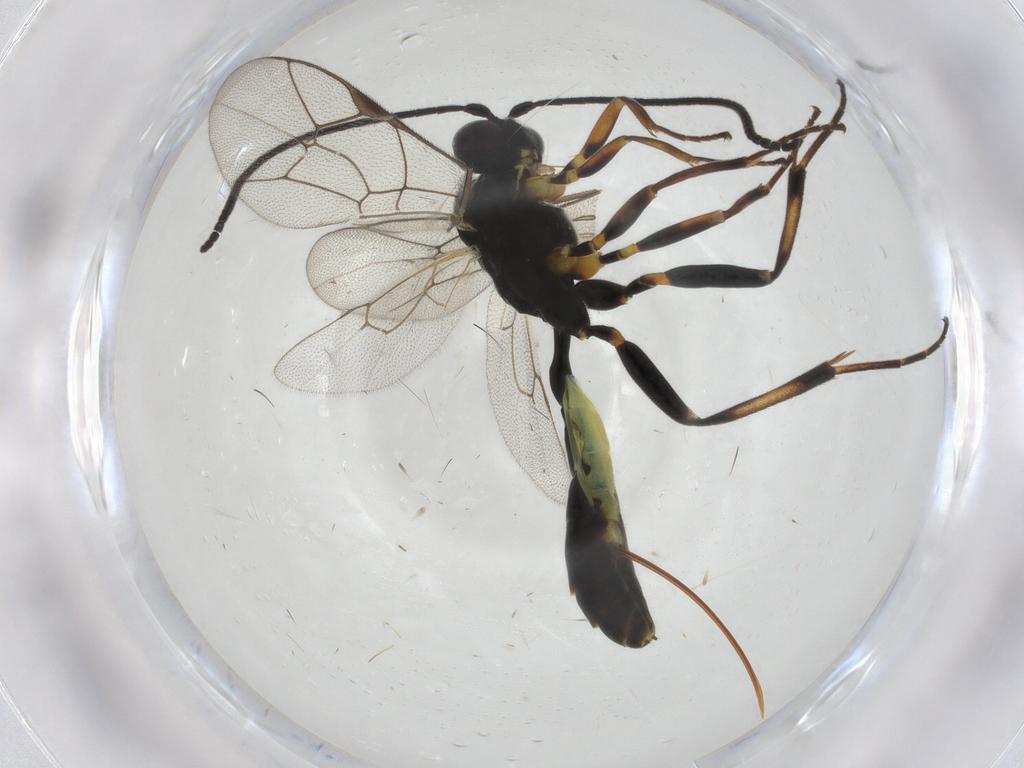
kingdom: Animalia
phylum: Arthropoda
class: Insecta
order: Hymenoptera
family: Ichneumonidae
